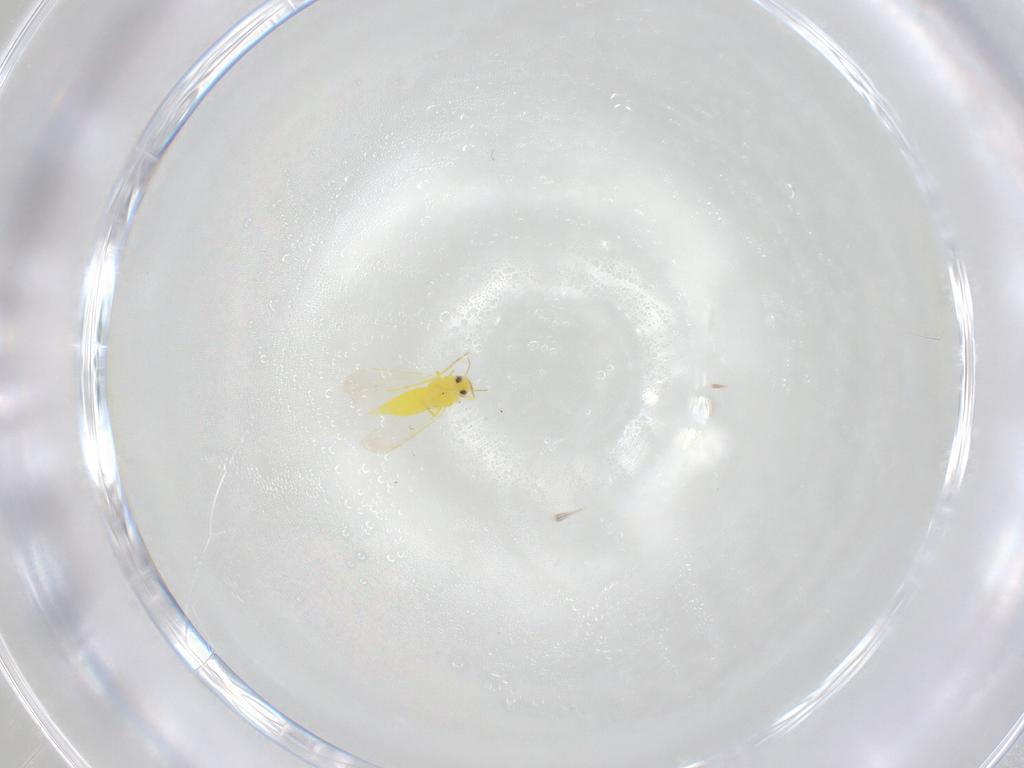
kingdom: Animalia
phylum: Arthropoda
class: Insecta
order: Hemiptera
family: Aleyrodidae
